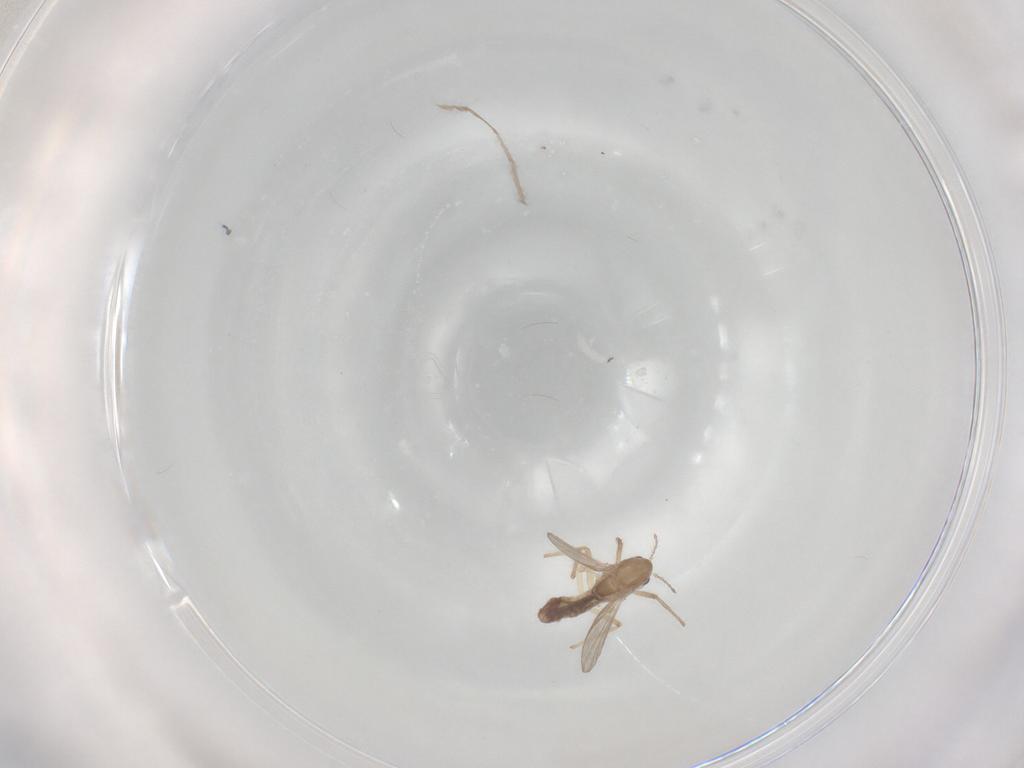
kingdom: Animalia
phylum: Arthropoda
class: Insecta
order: Diptera
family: Chironomidae
